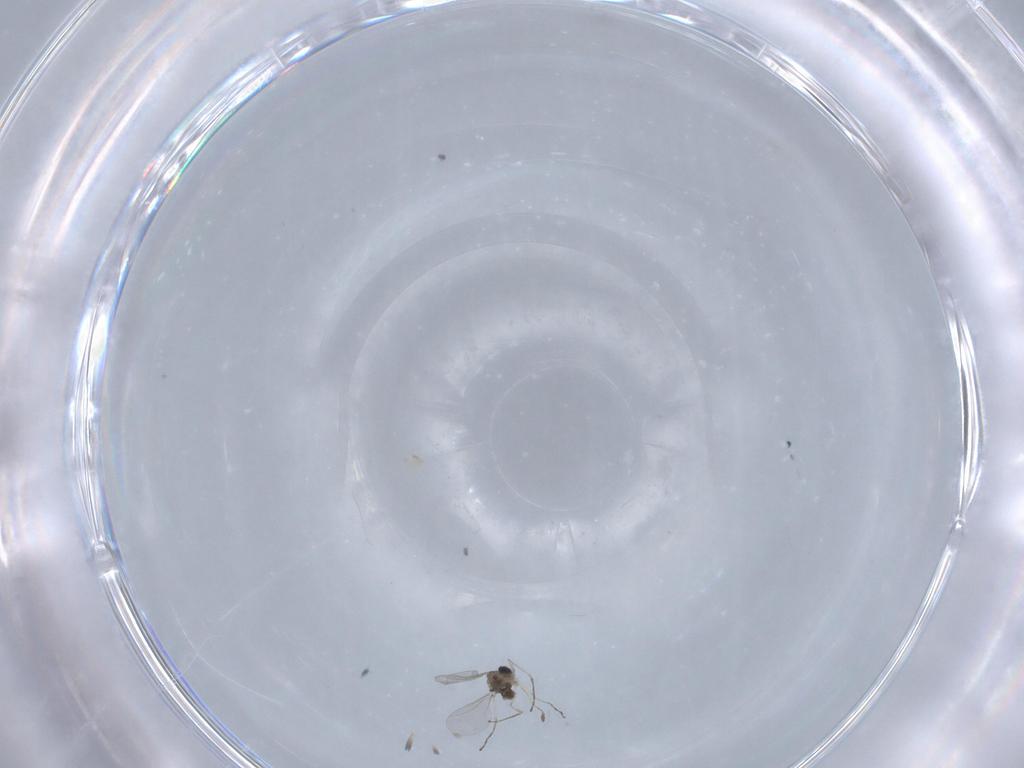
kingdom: Animalia
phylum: Arthropoda
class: Insecta
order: Diptera
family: Cecidomyiidae
